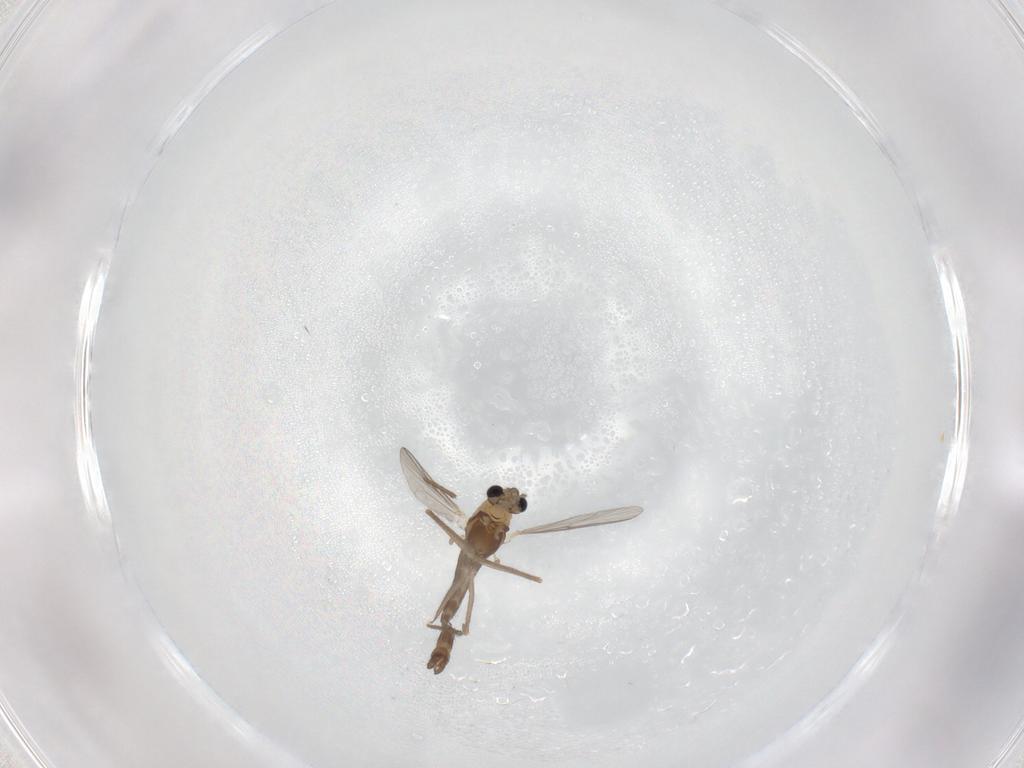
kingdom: Animalia
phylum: Arthropoda
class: Insecta
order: Diptera
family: Chironomidae
